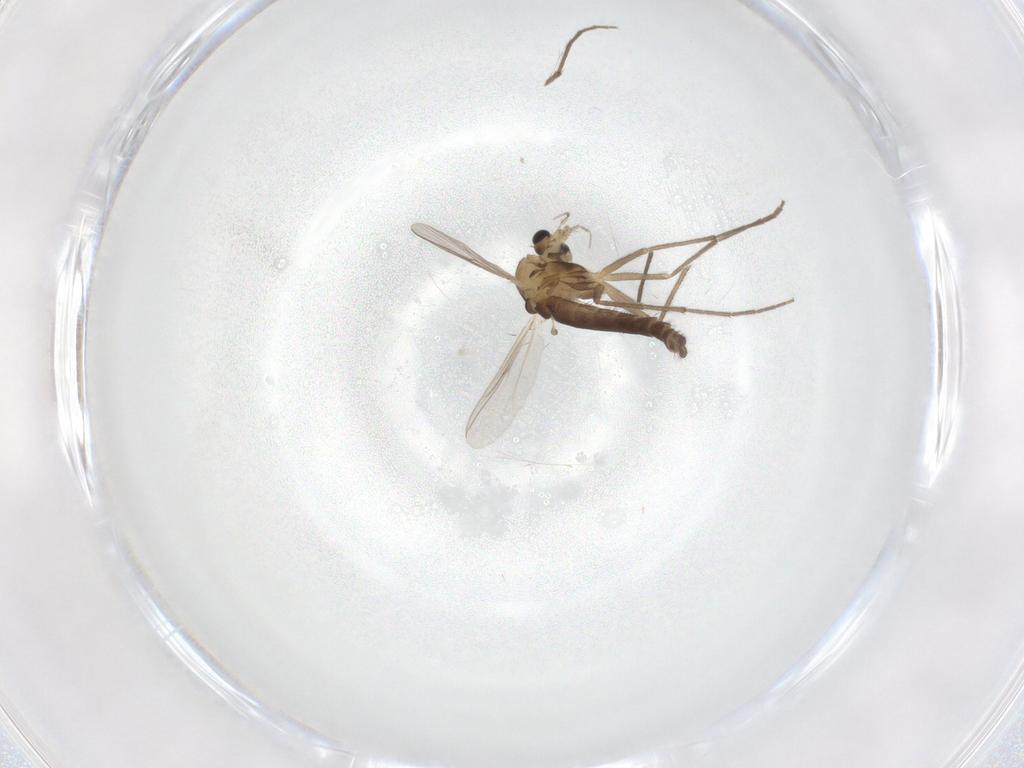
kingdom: Animalia
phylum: Arthropoda
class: Insecta
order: Diptera
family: Chironomidae
